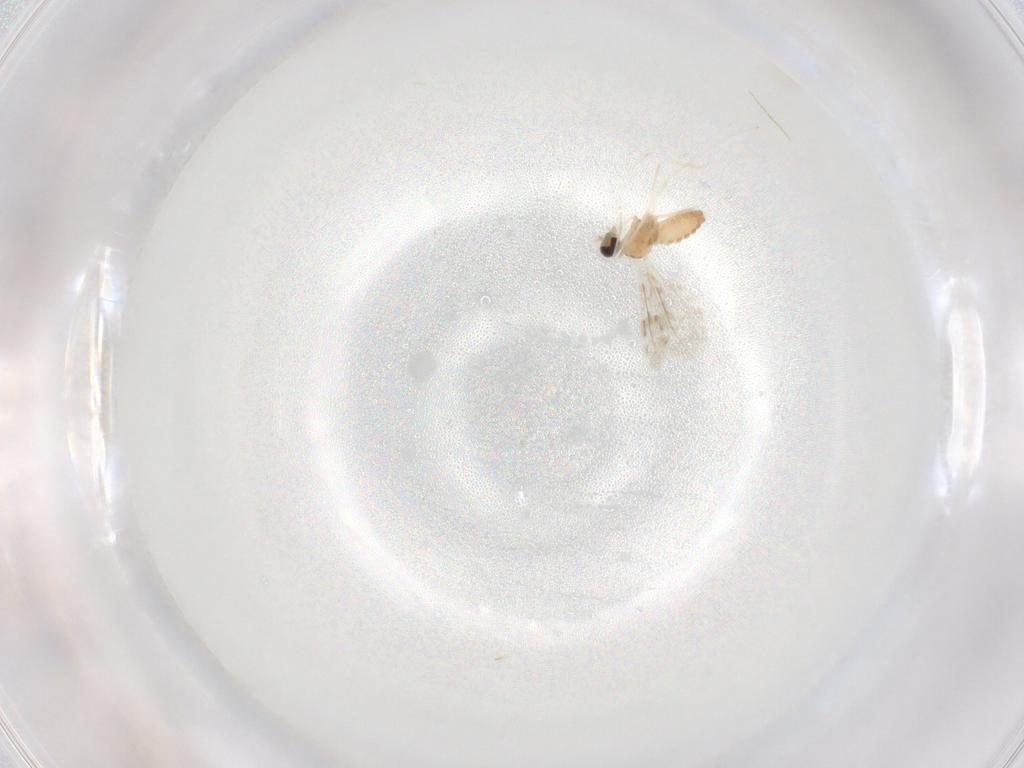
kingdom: Animalia
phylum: Arthropoda
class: Insecta
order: Diptera
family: Cecidomyiidae
